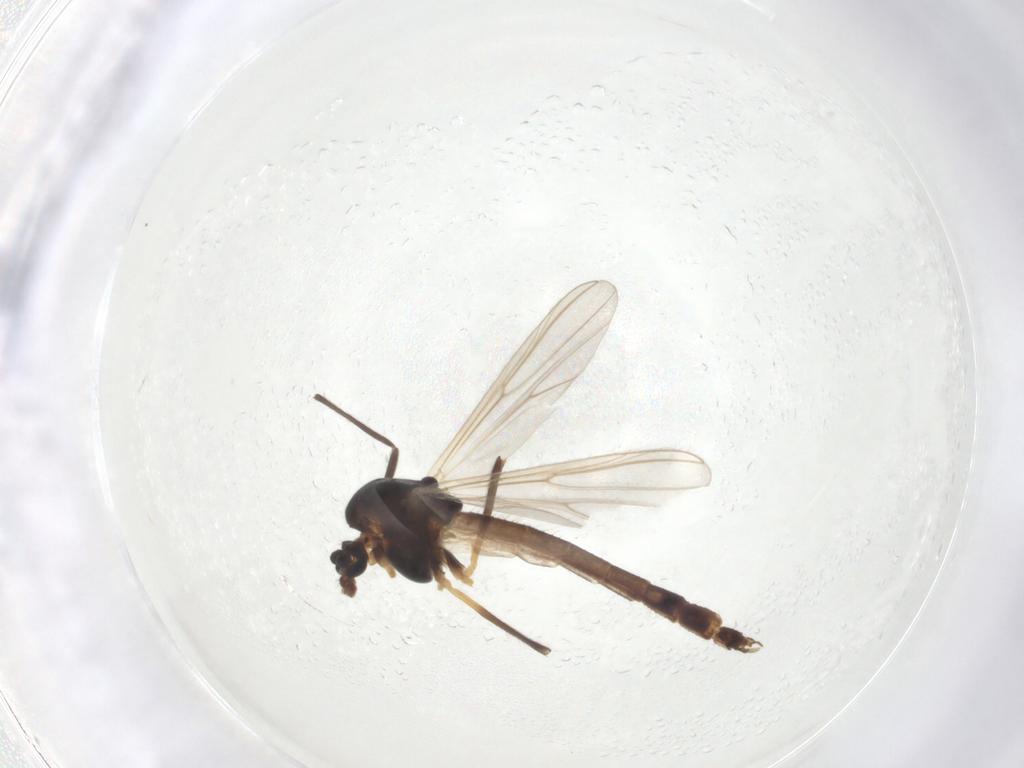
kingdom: Animalia
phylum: Arthropoda
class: Insecta
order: Diptera
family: Chironomidae
